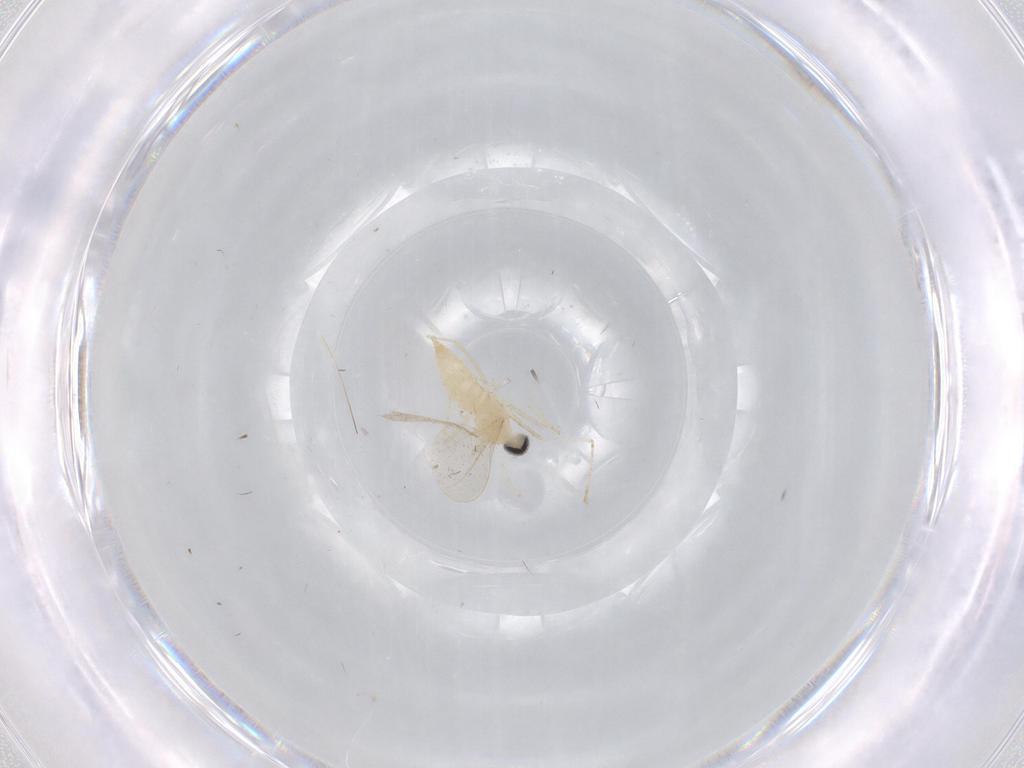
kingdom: Animalia
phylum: Arthropoda
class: Insecta
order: Diptera
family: Cecidomyiidae
